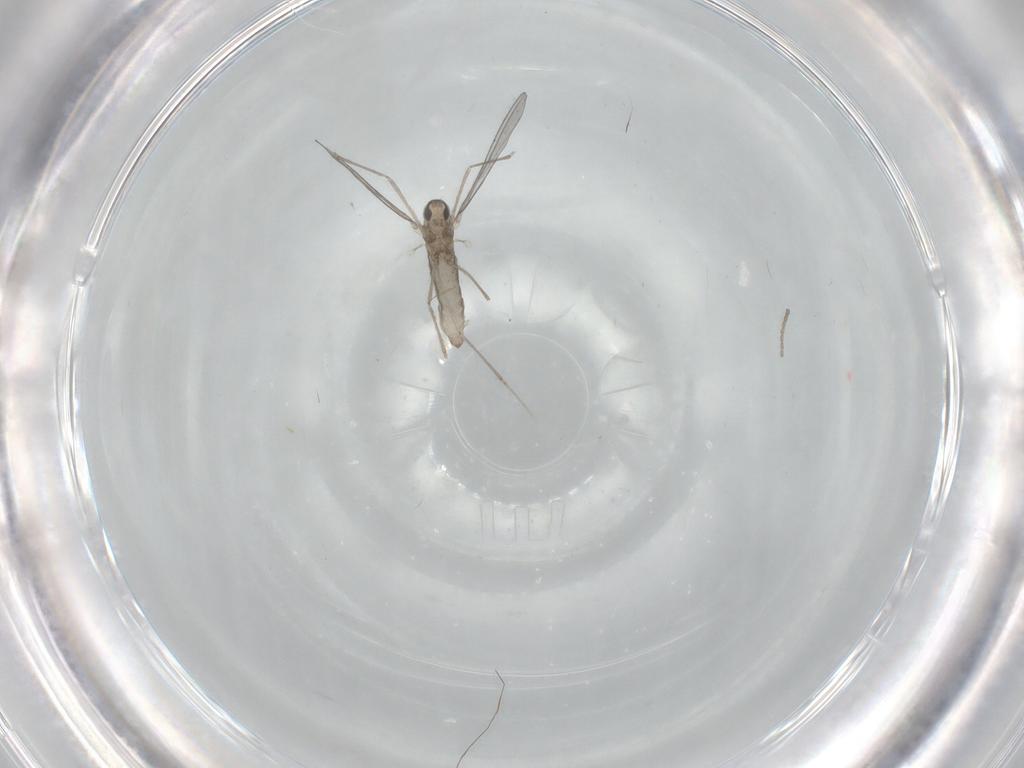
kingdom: Animalia
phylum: Arthropoda
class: Insecta
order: Diptera
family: Cecidomyiidae
